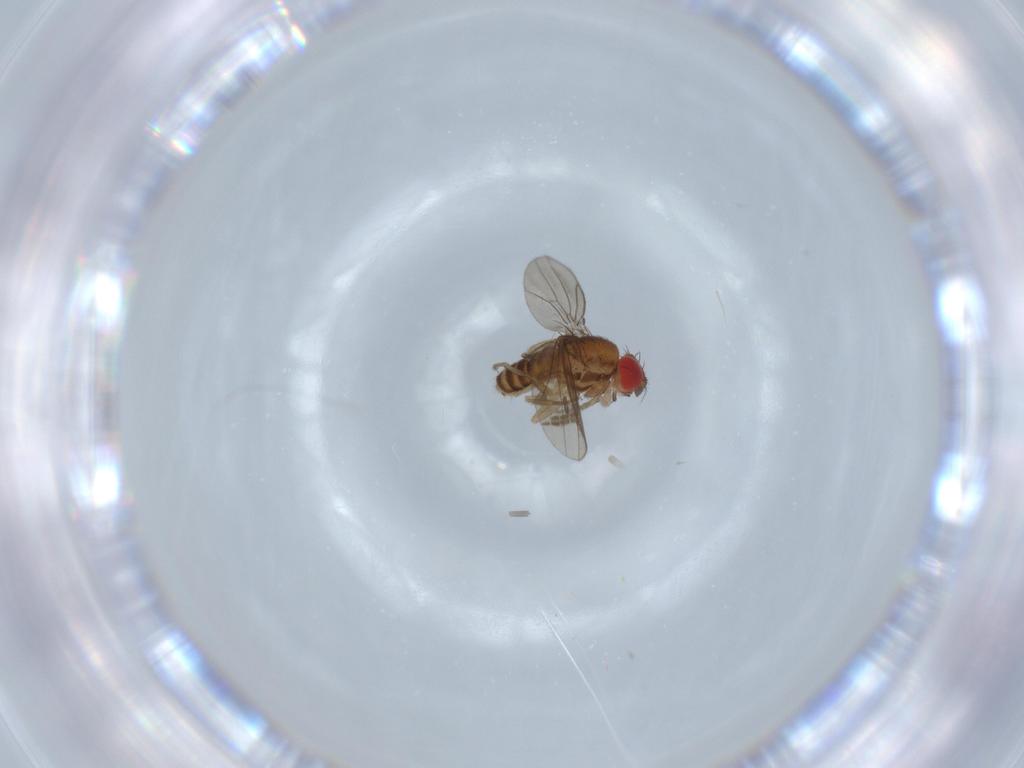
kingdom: Animalia
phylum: Arthropoda
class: Insecta
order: Diptera
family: Drosophilidae
